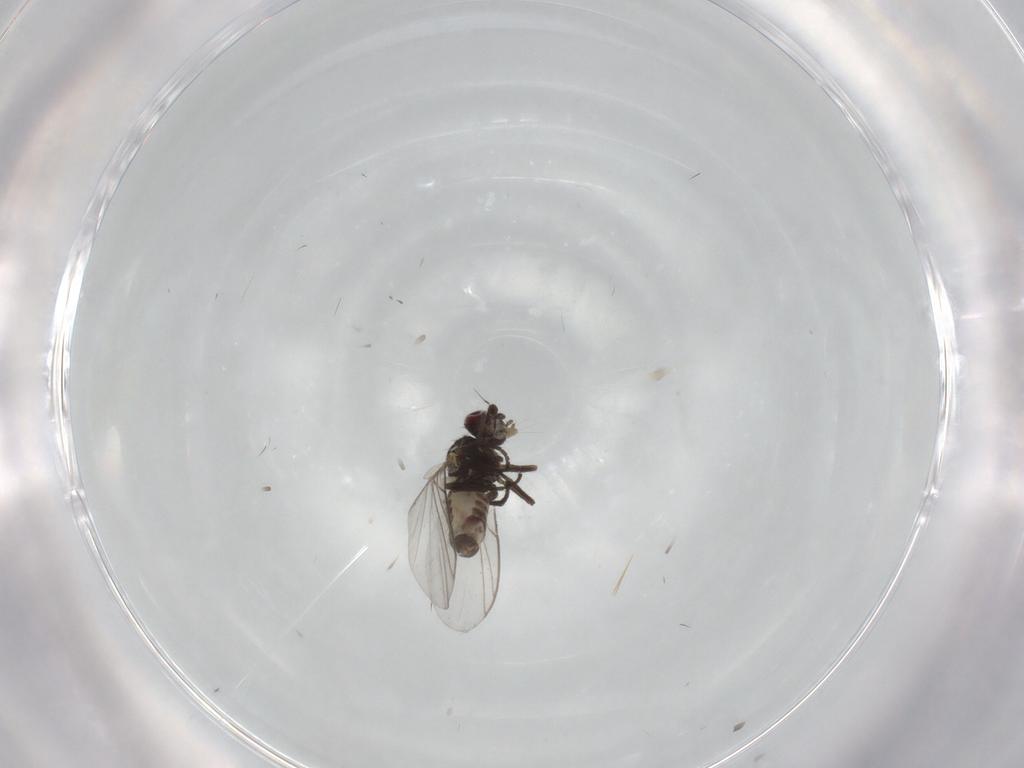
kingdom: Animalia
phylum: Arthropoda
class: Insecta
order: Diptera
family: Agromyzidae
